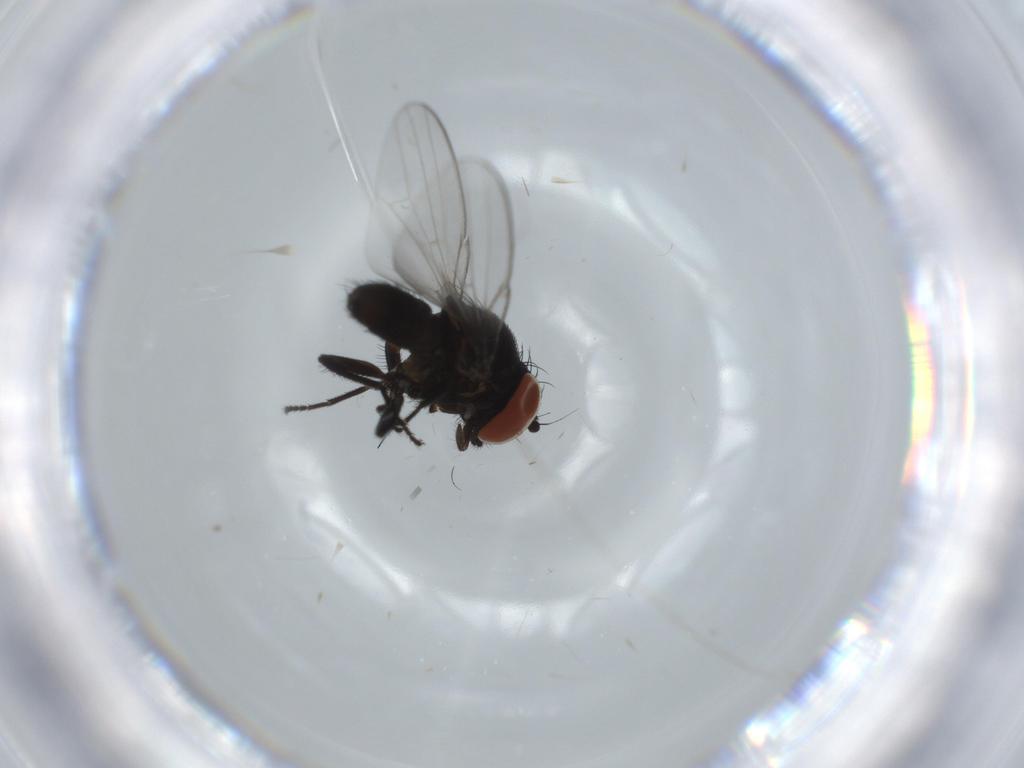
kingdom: Animalia
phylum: Arthropoda
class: Insecta
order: Diptera
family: Milichiidae
